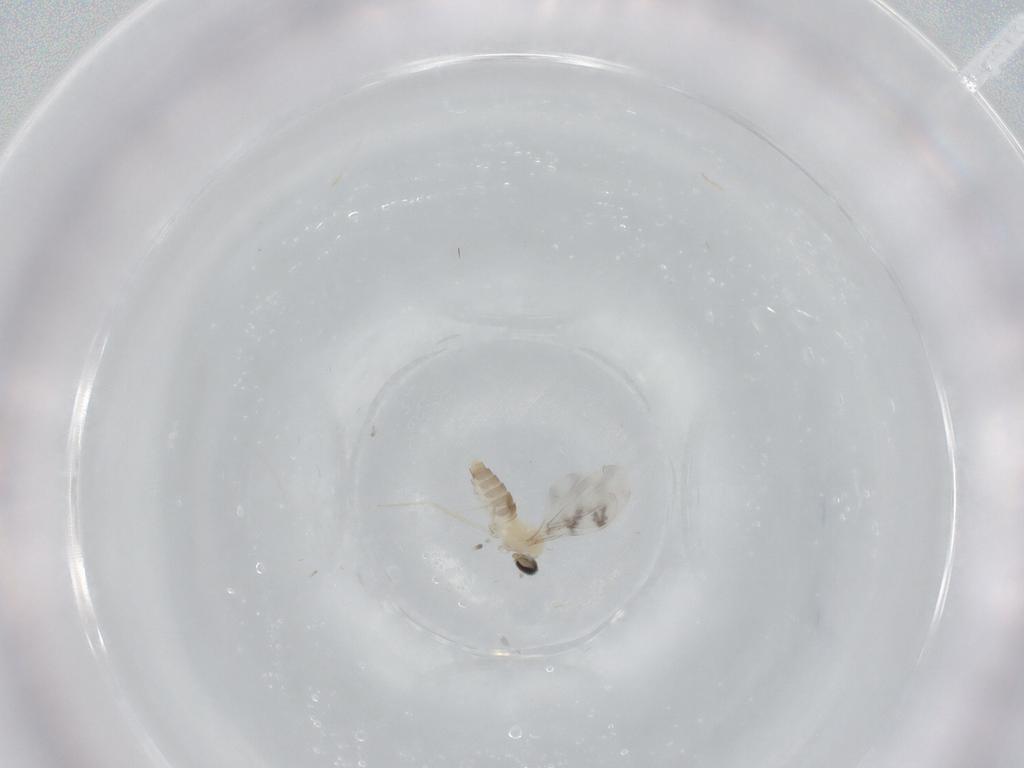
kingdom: Animalia
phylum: Arthropoda
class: Insecta
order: Diptera
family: Cecidomyiidae
